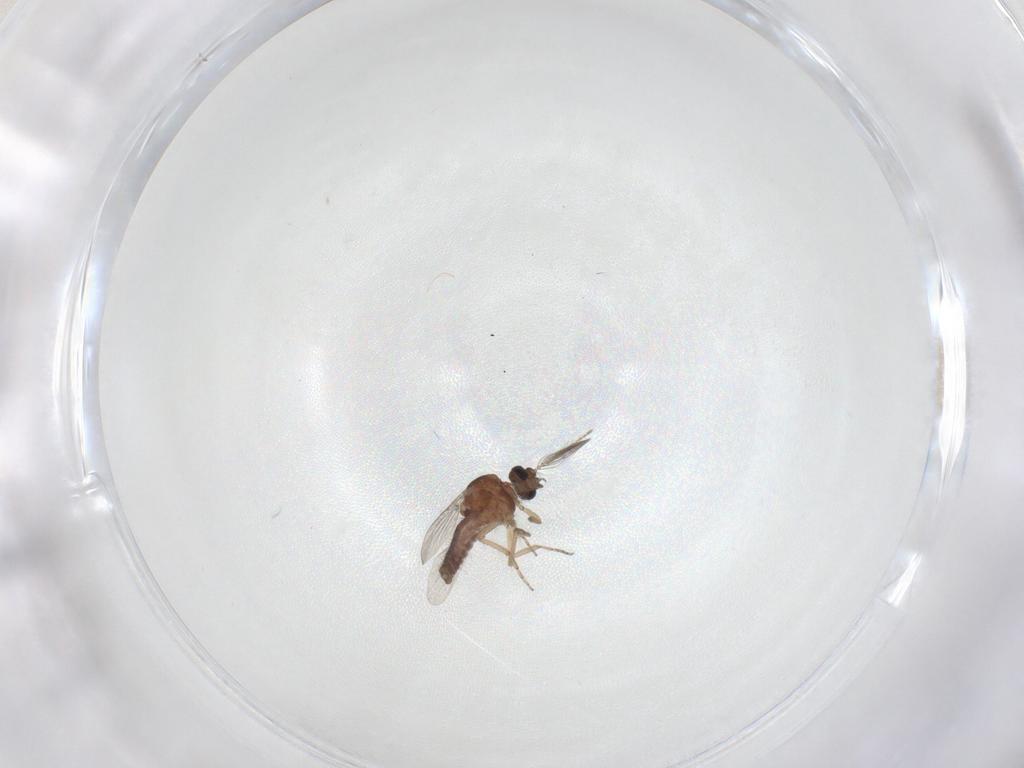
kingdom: Animalia
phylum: Arthropoda
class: Insecta
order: Diptera
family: Ceratopogonidae
